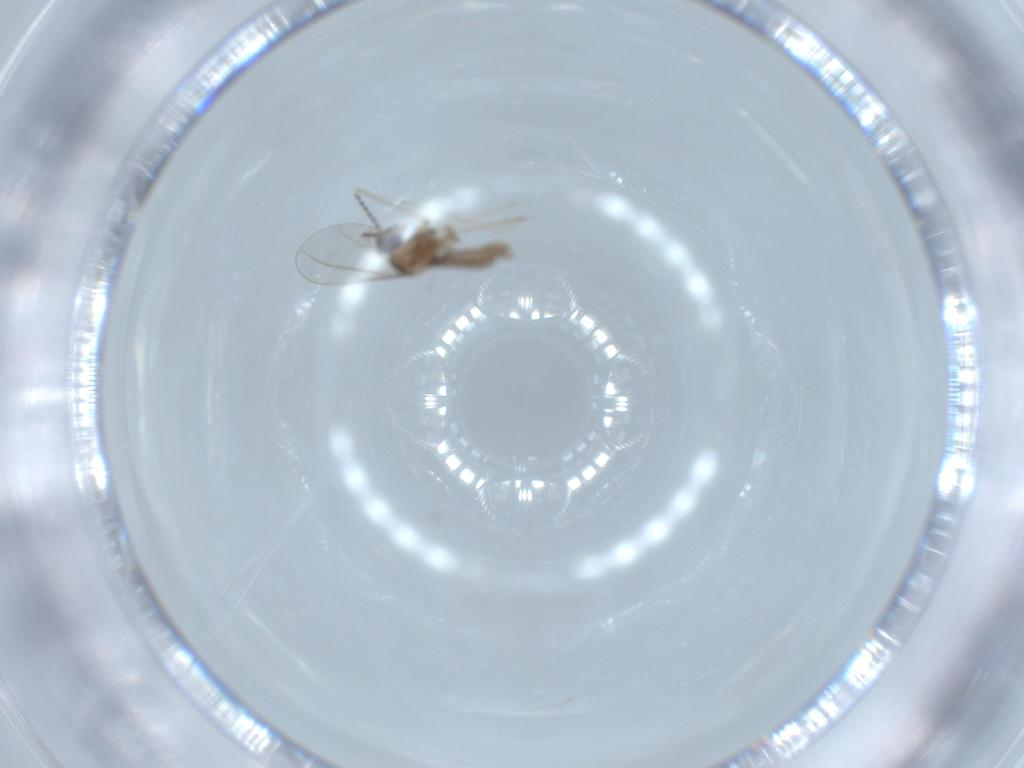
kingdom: Animalia
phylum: Arthropoda
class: Insecta
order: Diptera
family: Cecidomyiidae
